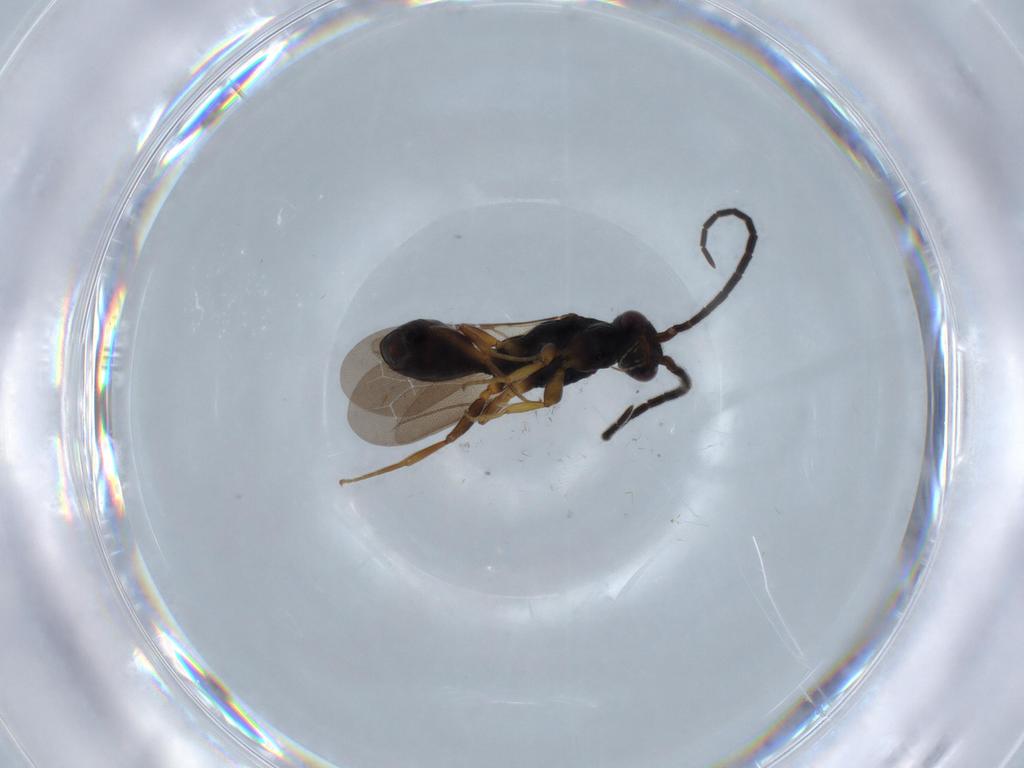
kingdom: Animalia
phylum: Arthropoda
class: Insecta
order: Hymenoptera
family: Bethylidae
